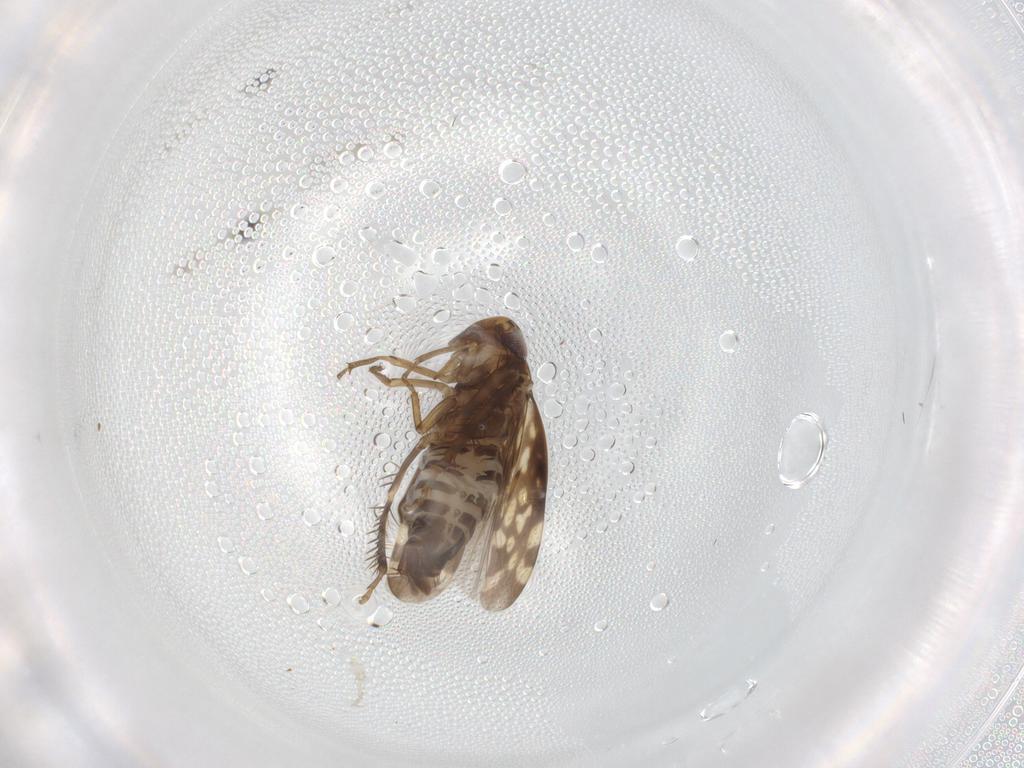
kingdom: Animalia
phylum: Arthropoda
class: Insecta
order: Hemiptera
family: Cicadellidae
